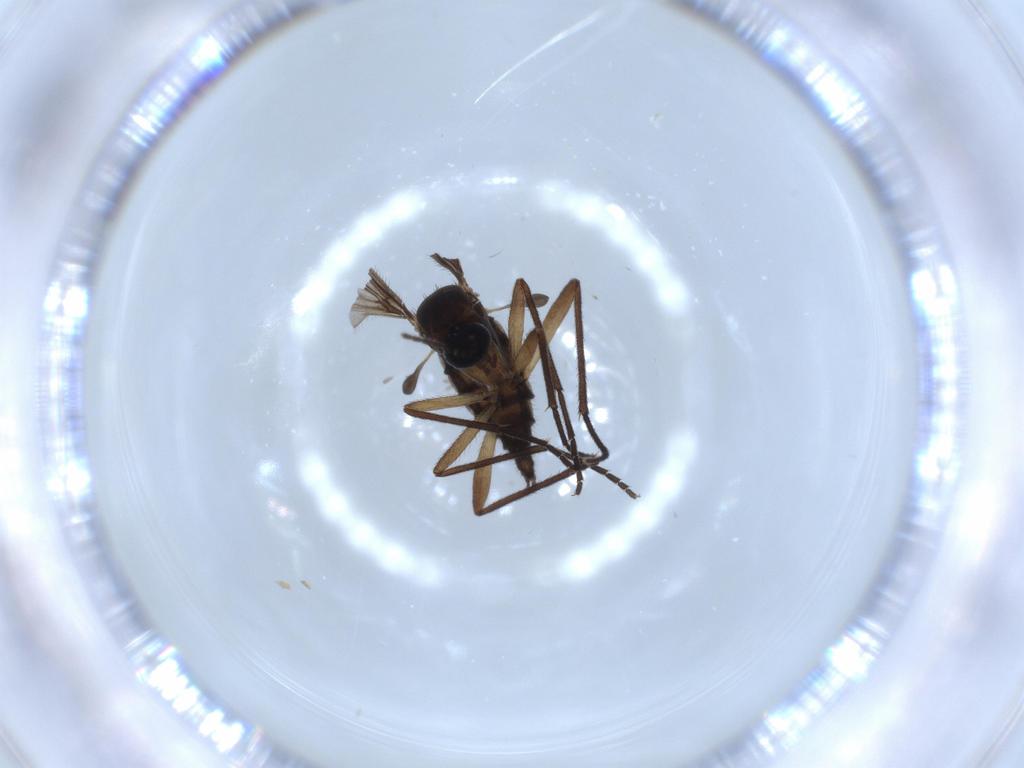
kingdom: Animalia
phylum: Arthropoda
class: Insecta
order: Diptera
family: Sciaridae
